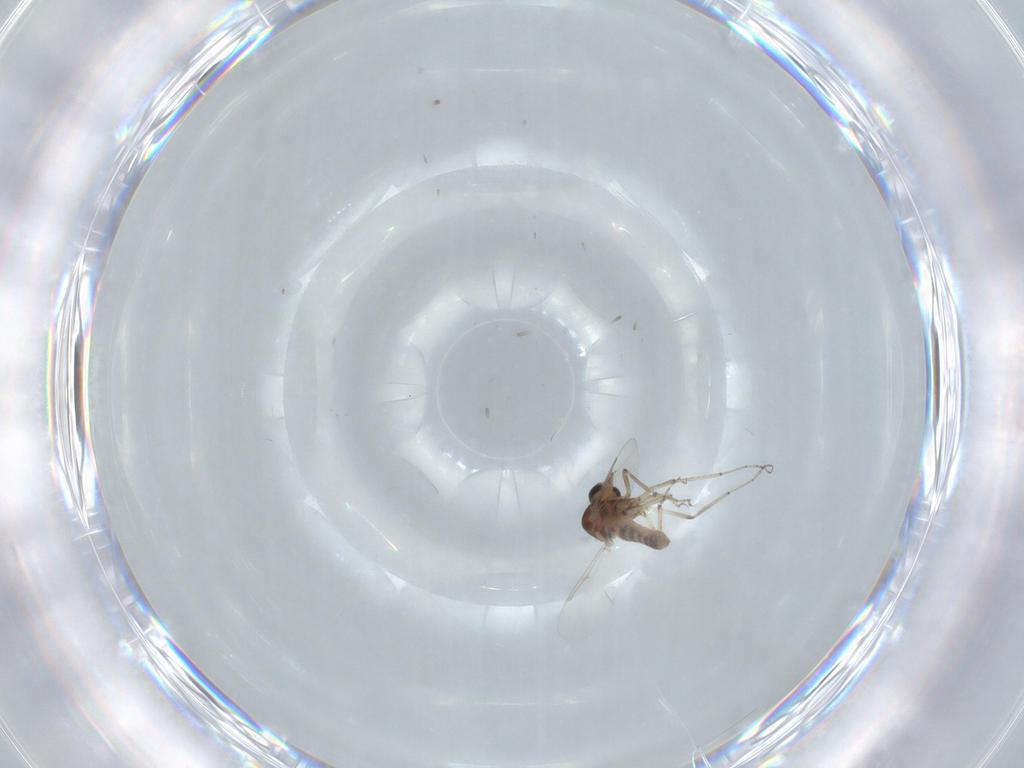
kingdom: Animalia
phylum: Arthropoda
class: Insecta
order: Diptera
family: Ceratopogonidae
